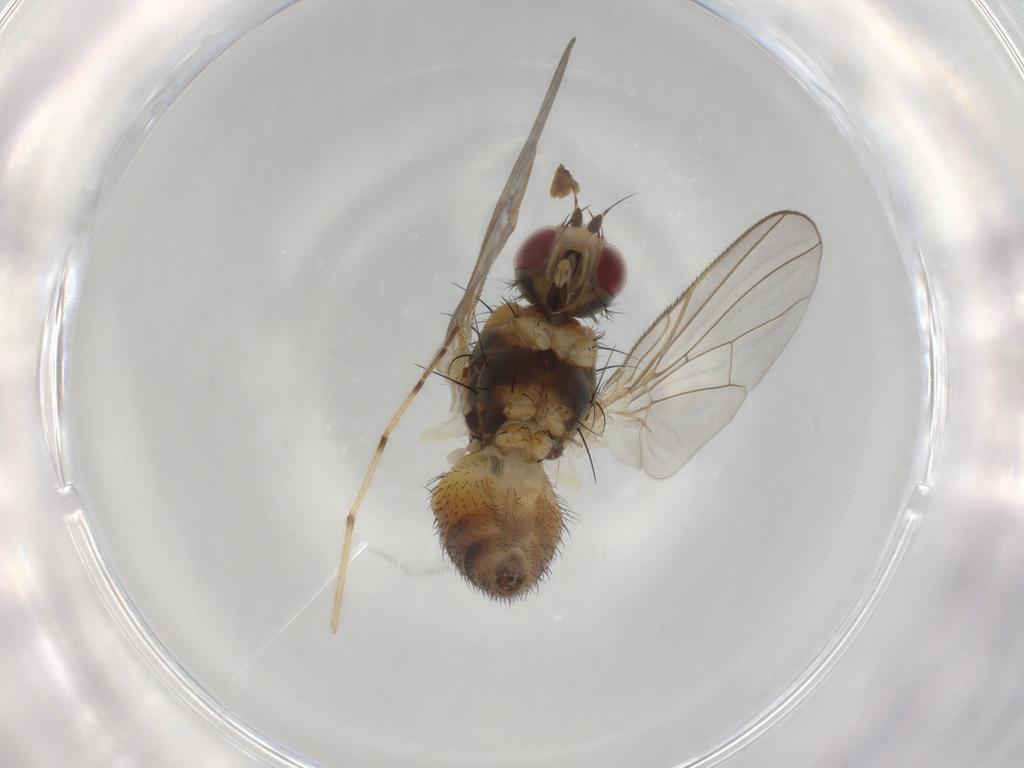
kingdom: Animalia
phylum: Arthropoda
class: Insecta
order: Diptera
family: Muscidae
